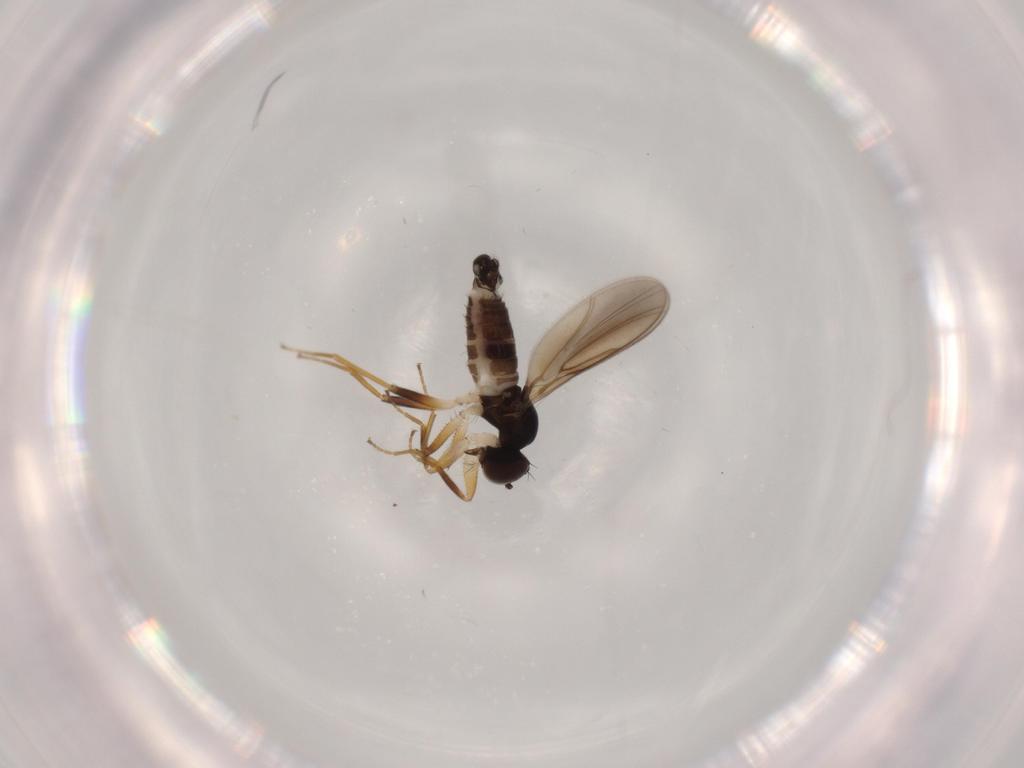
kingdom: Animalia
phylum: Arthropoda
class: Insecta
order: Diptera
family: Hybotidae
